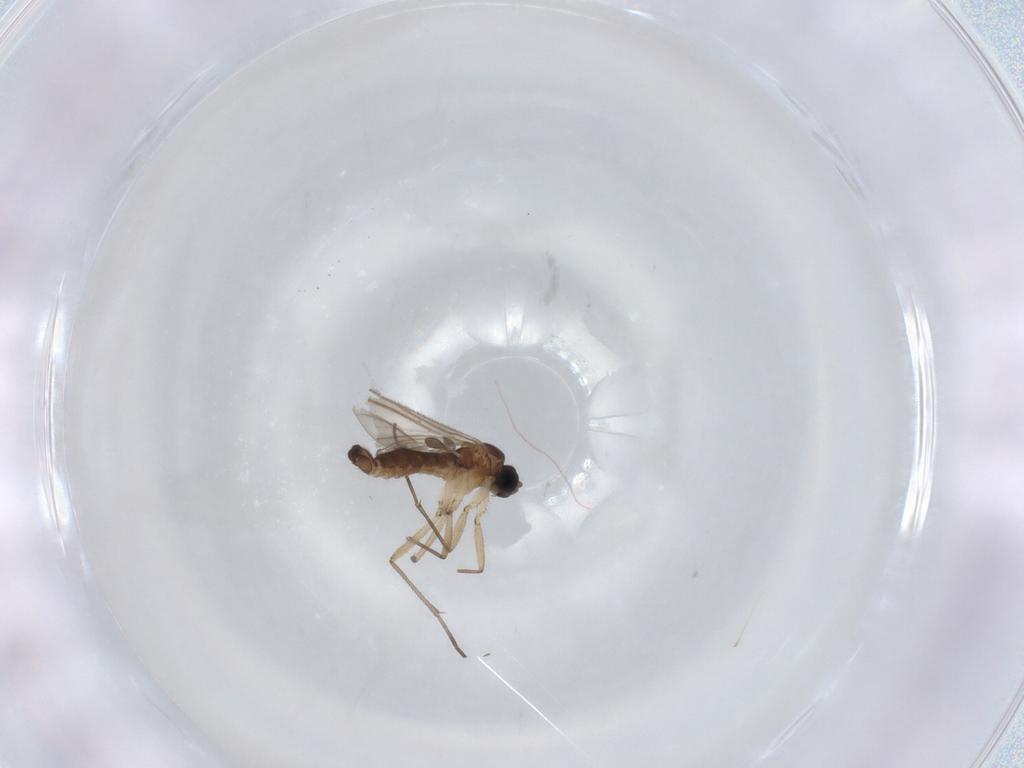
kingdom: Animalia
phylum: Arthropoda
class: Insecta
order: Diptera
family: Sciaridae
